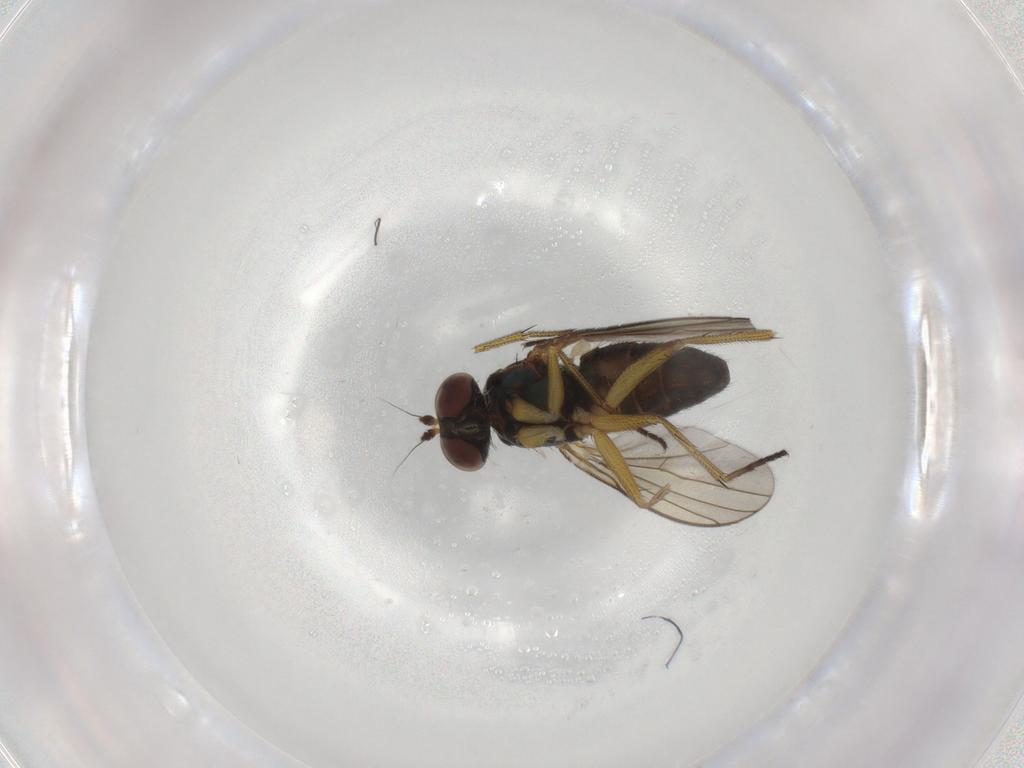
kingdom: Animalia
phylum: Arthropoda
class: Insecta
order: Diptera
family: Dolichopodidae
